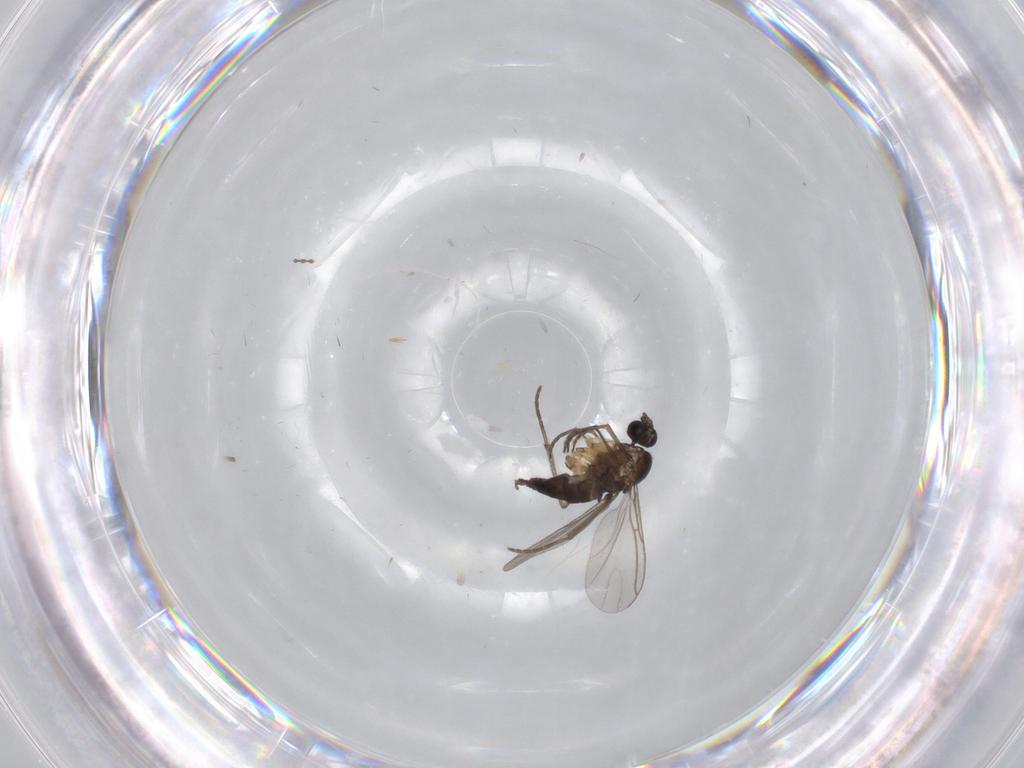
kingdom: Animalia
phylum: Arthropoda
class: Insecta
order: Diptera
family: Sciaridae
